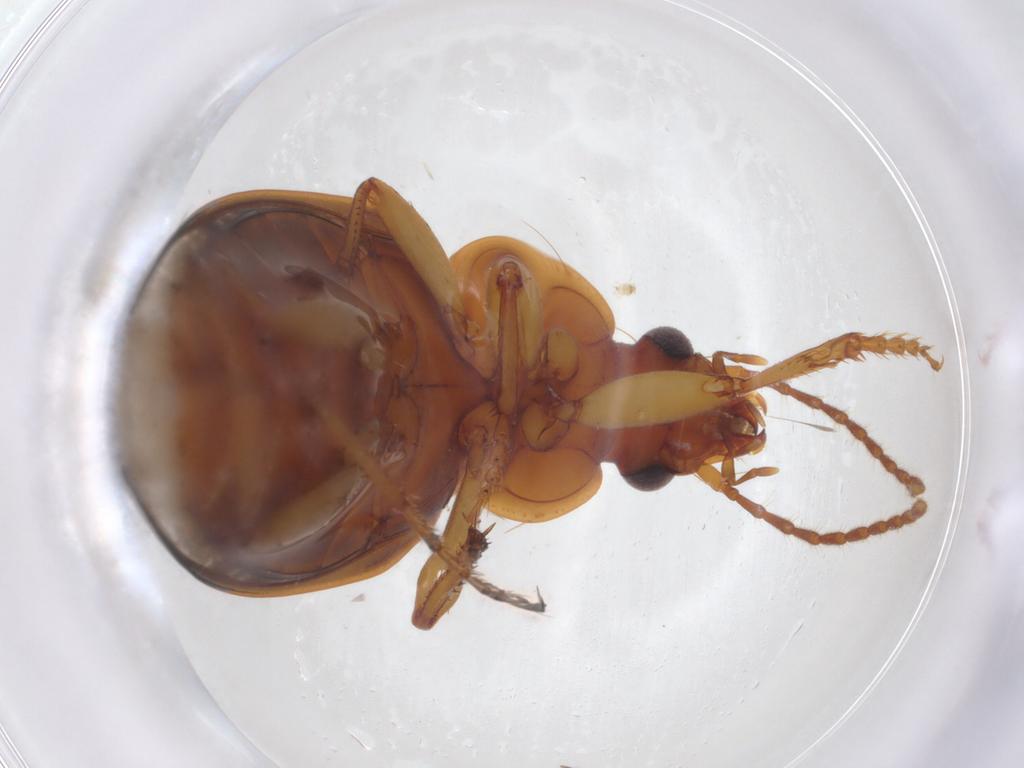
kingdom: Animalia
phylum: Arthropoda
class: Insecta
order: Coleoptera
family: Carabidae
